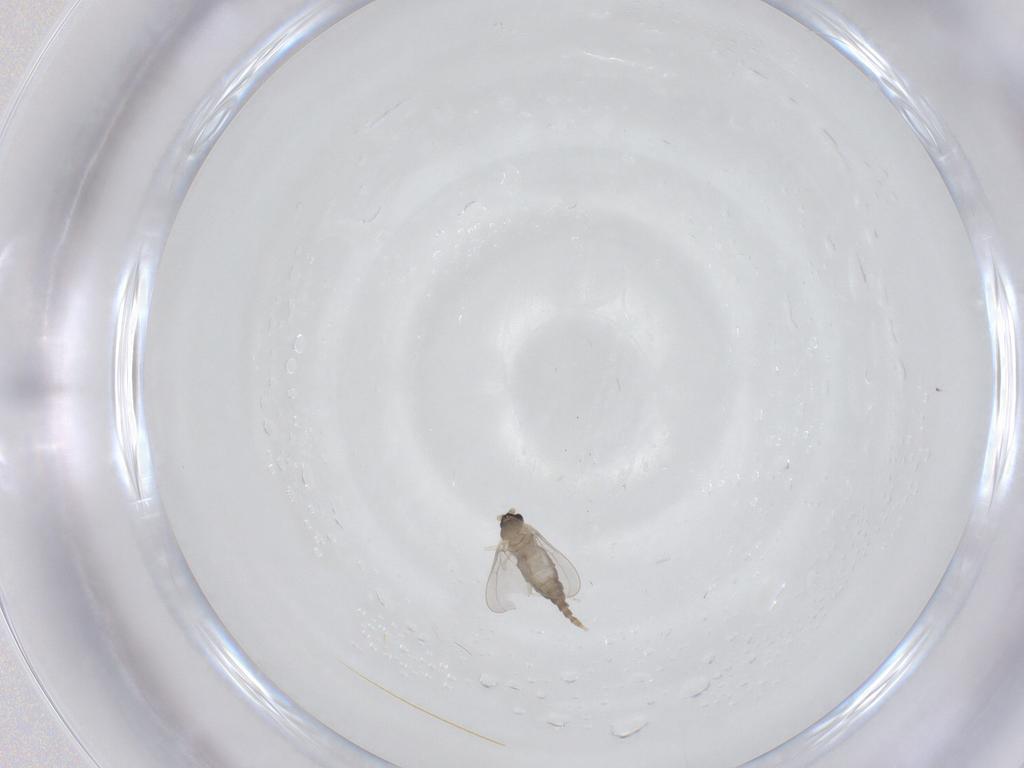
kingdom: Animalia
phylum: Arthropoda
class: Insecta
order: Diptera
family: Cecidomyiidae
